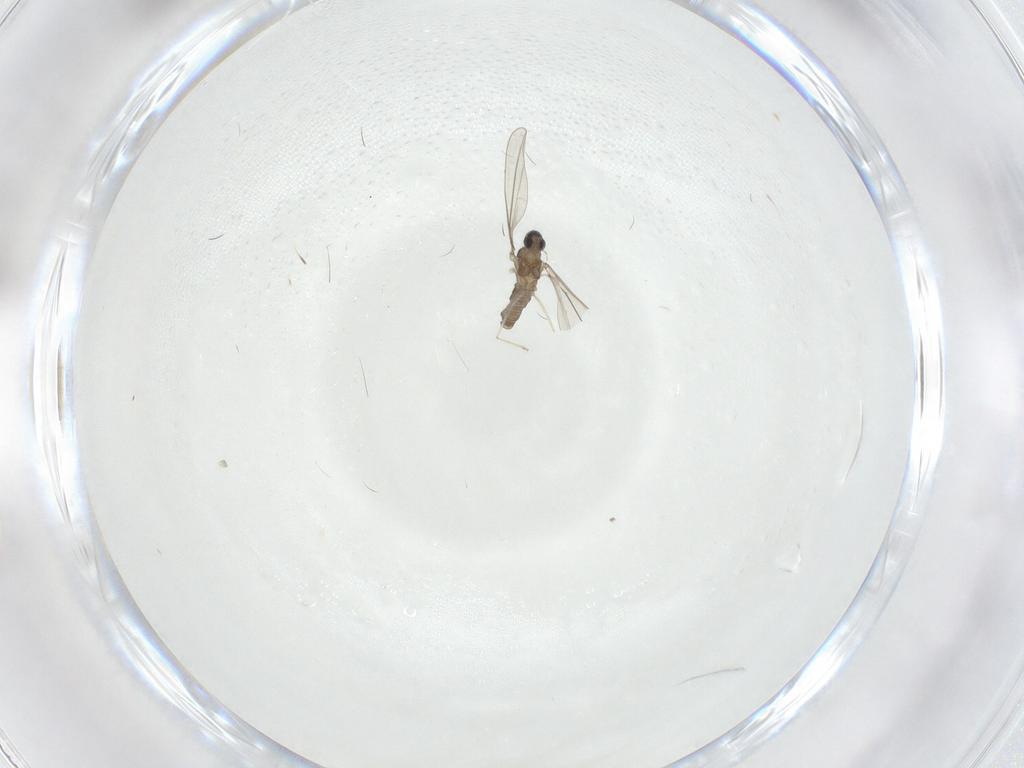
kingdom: Animalia
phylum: Arthropoda
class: Insecta
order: Diptera
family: Cecidomyiidae
